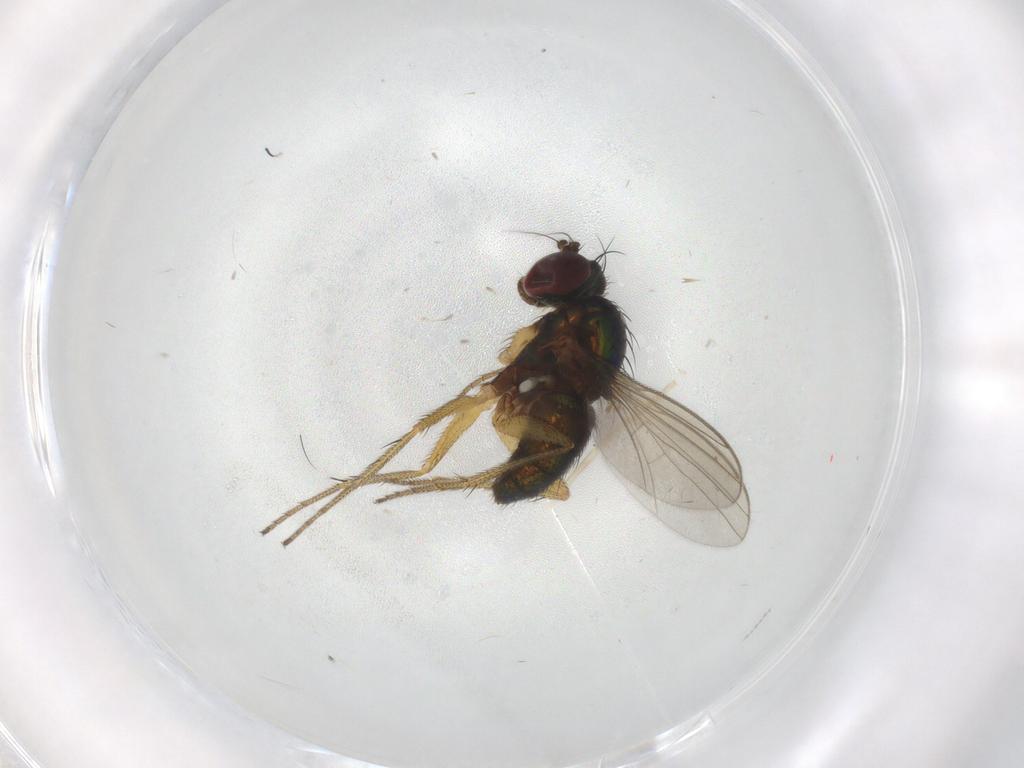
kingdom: Animalia
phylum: Arthropoda
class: Insecta
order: Diptera
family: Dolichopodidae
